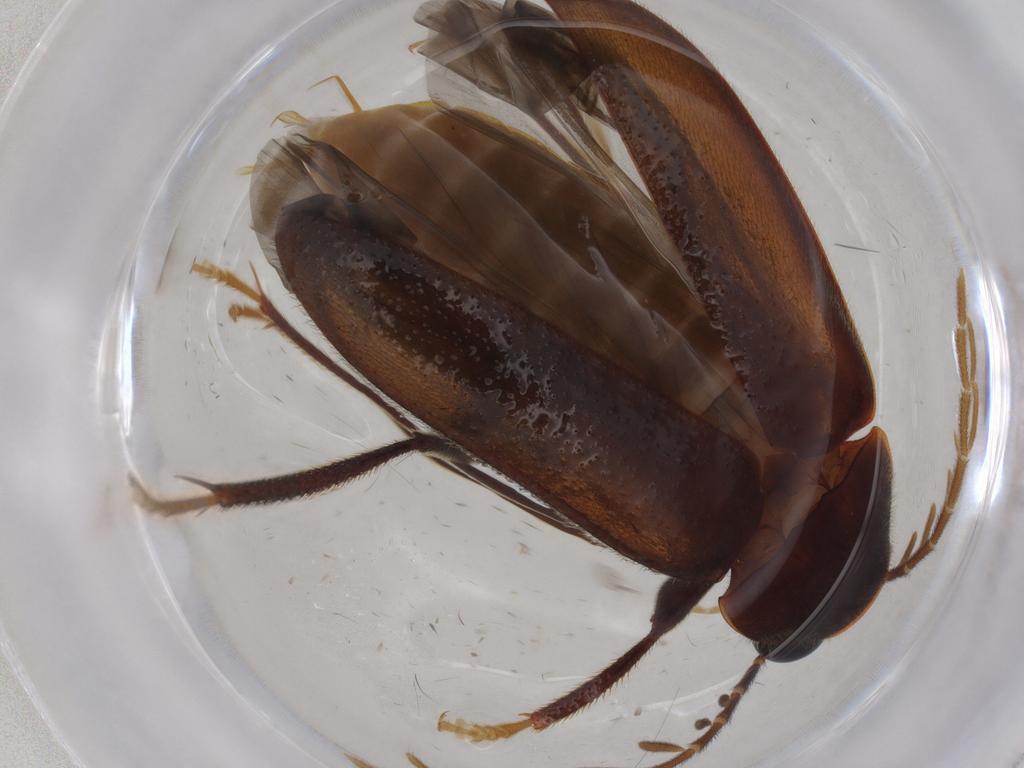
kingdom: Animalia
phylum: Arthropoda
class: Insecta
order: Coleoptera
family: Ptilodactylidae
